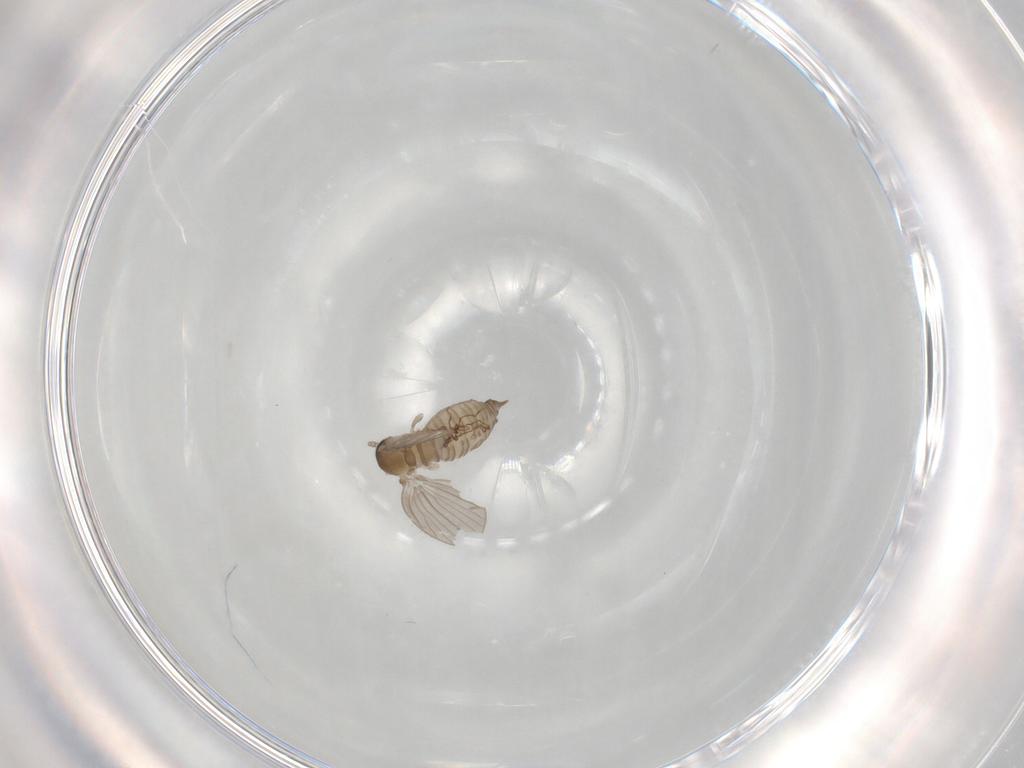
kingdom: Animalia
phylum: Arthropoda
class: Insecta
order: Diptera
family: Psychodidae
